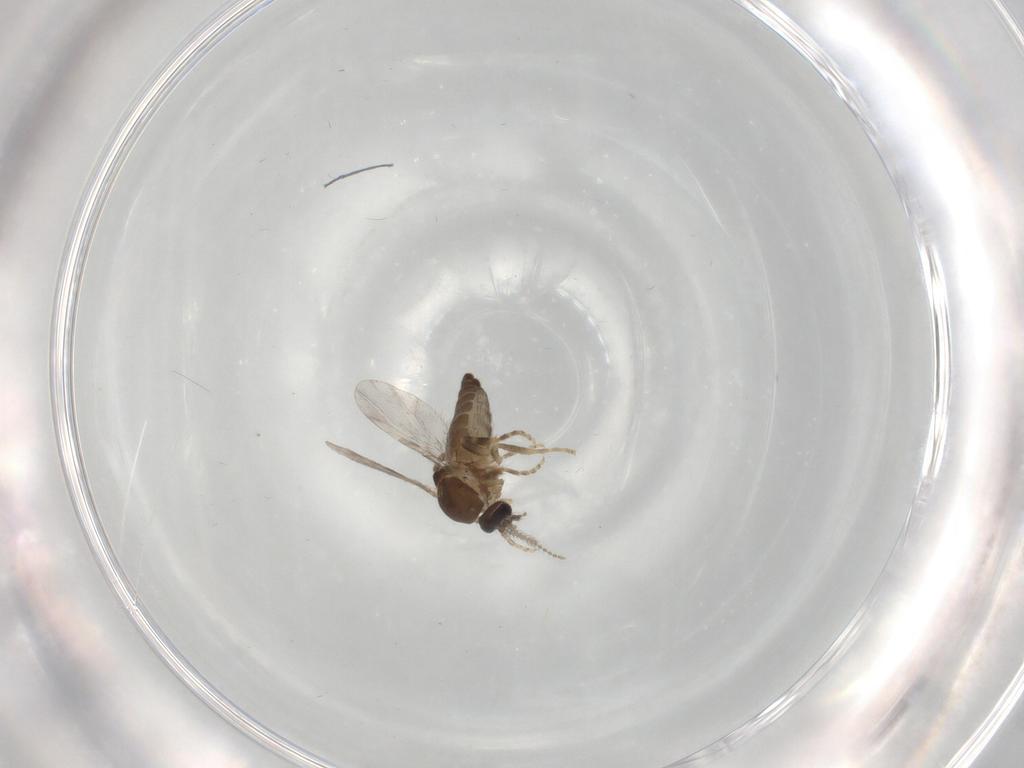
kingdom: Animalia
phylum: Arthropoda
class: Insecta
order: Diptera
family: Ceratopogonidae
